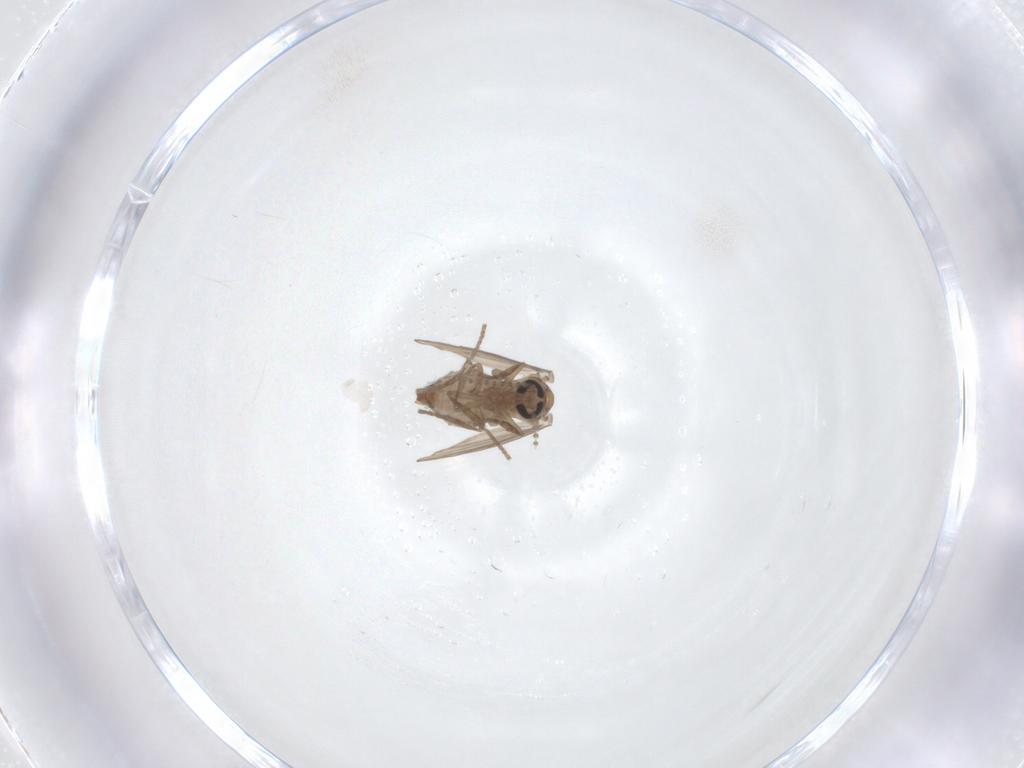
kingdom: Animalia
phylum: Arthropoda
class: Insecta
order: Diptera
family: Psychodidae
